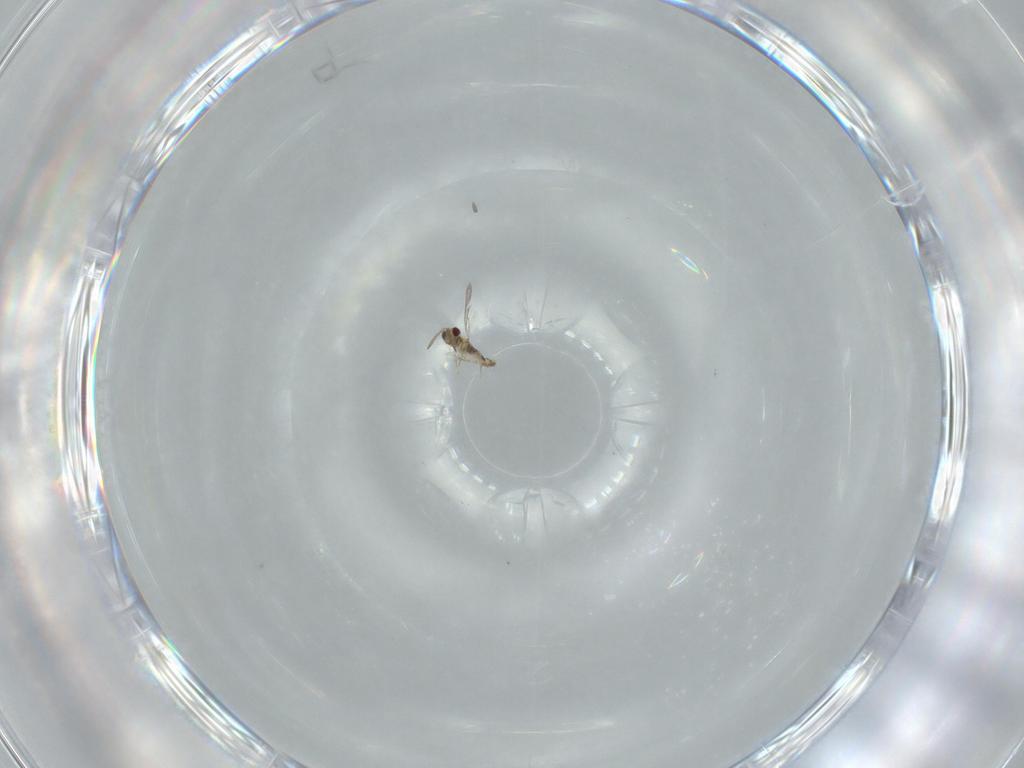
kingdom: Animalia
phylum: Arthropoda
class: Insecta
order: Hymenoptera
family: Aphelinidae
